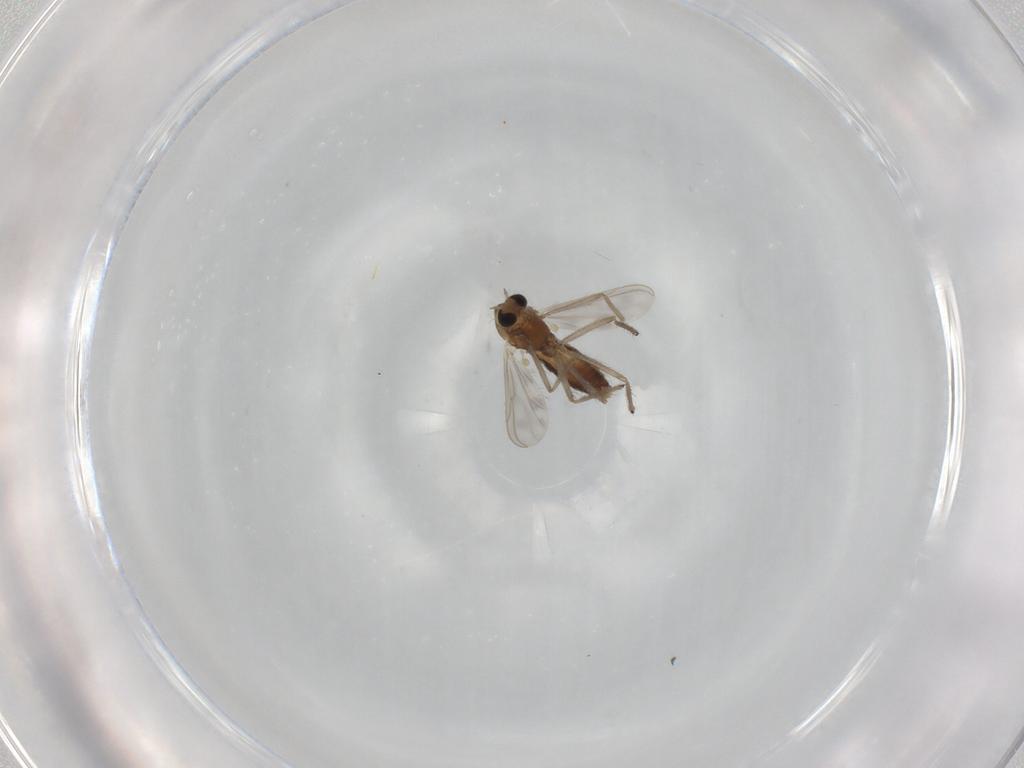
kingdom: Animalia
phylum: Arthropoda
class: Insecta
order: Diptera
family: Chironomidae
